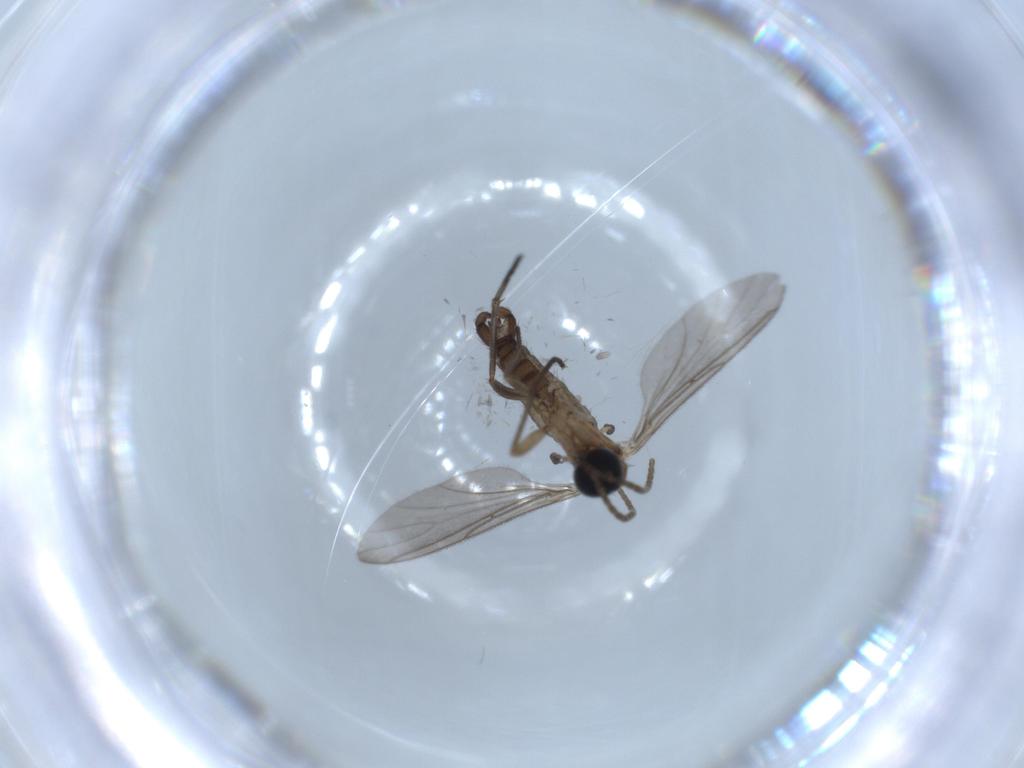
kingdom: Animalia
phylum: Arthropoda
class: Insecta
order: Diptera
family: Sciaridae
